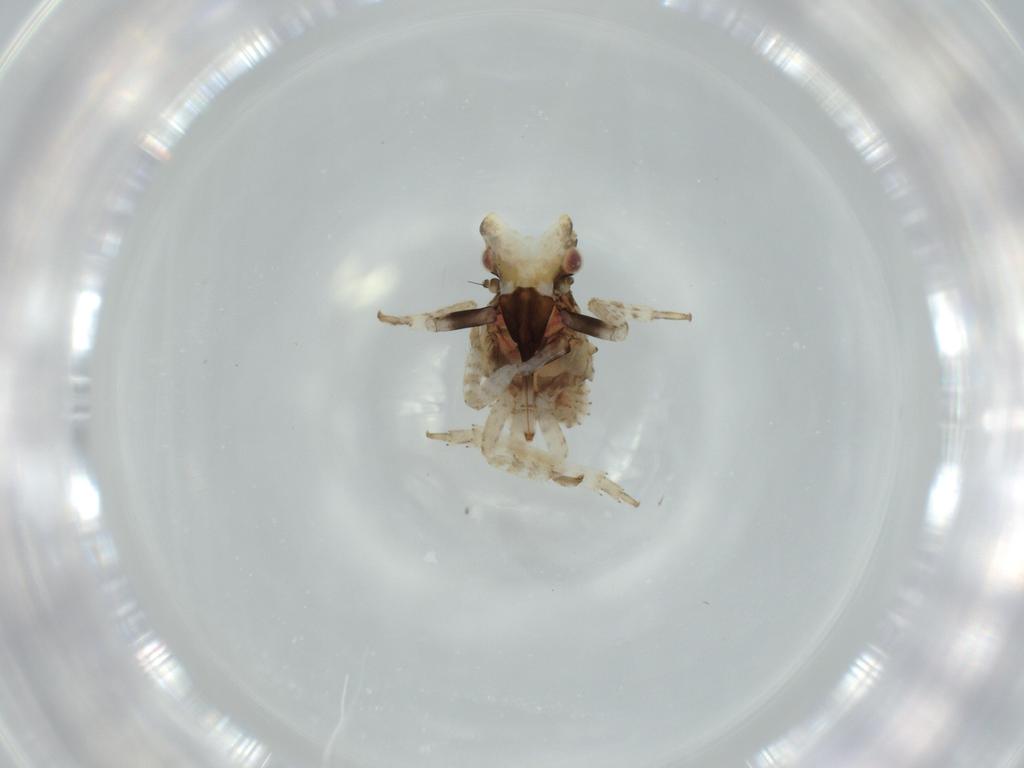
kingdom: Animalia
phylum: Arthropoda
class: Insecta
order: Hemiptera
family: Fulgoridae
